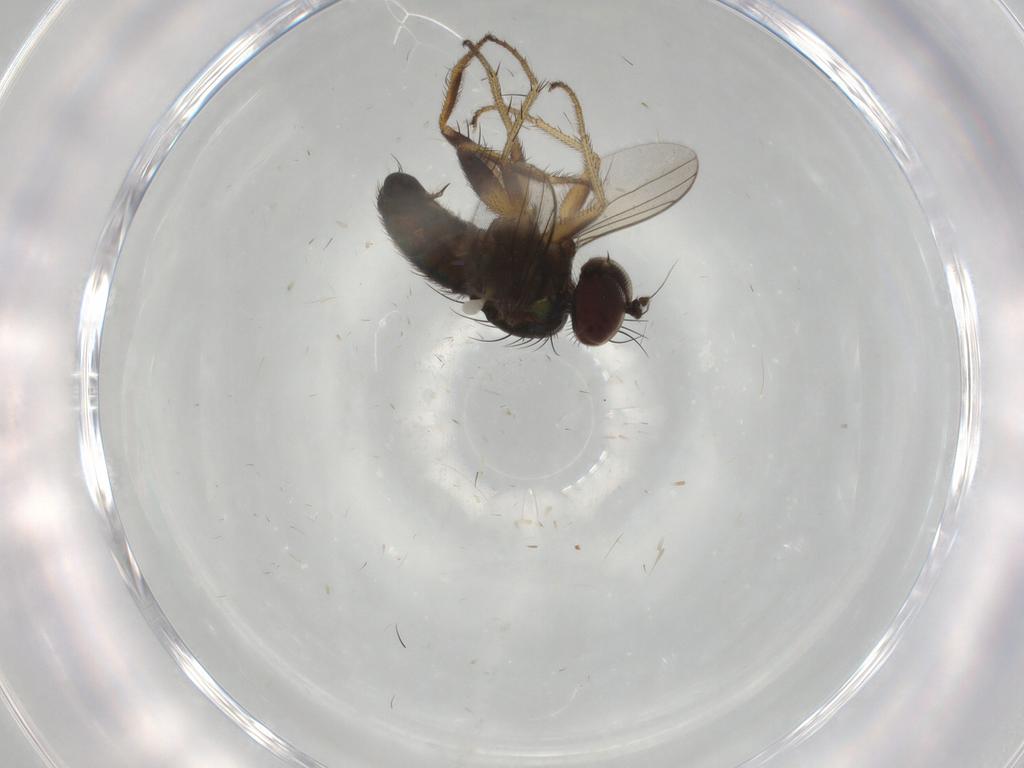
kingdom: Animalia
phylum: Arthropoda
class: Insecta
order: Diptera
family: Dolichopodidae
